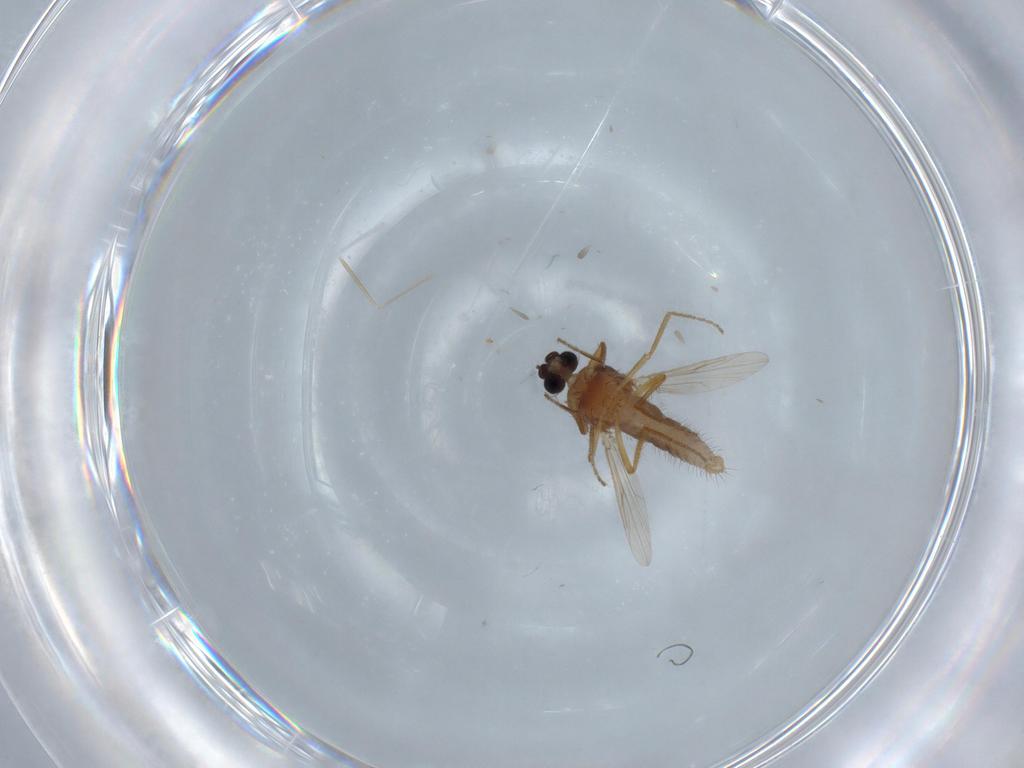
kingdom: Animalia
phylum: Arthropoda
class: Insecta
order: Diptera
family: Ceratopogonidae
